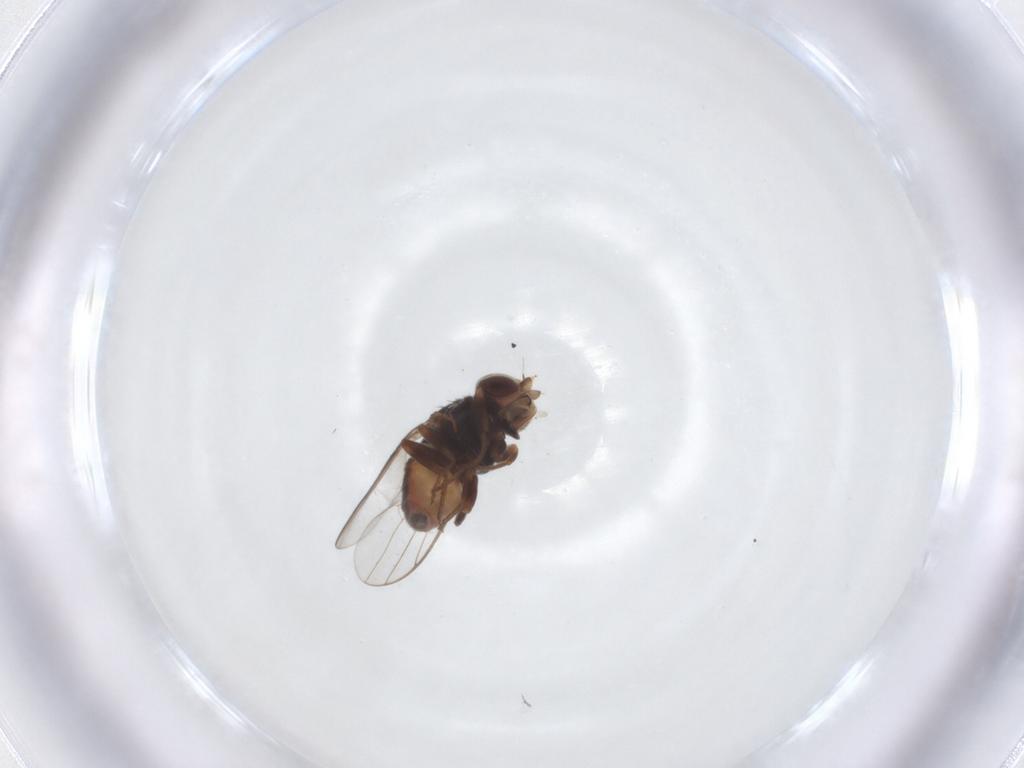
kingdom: Animalia
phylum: Arthropoda
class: Insecta
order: Diptera
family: Chloropidae
